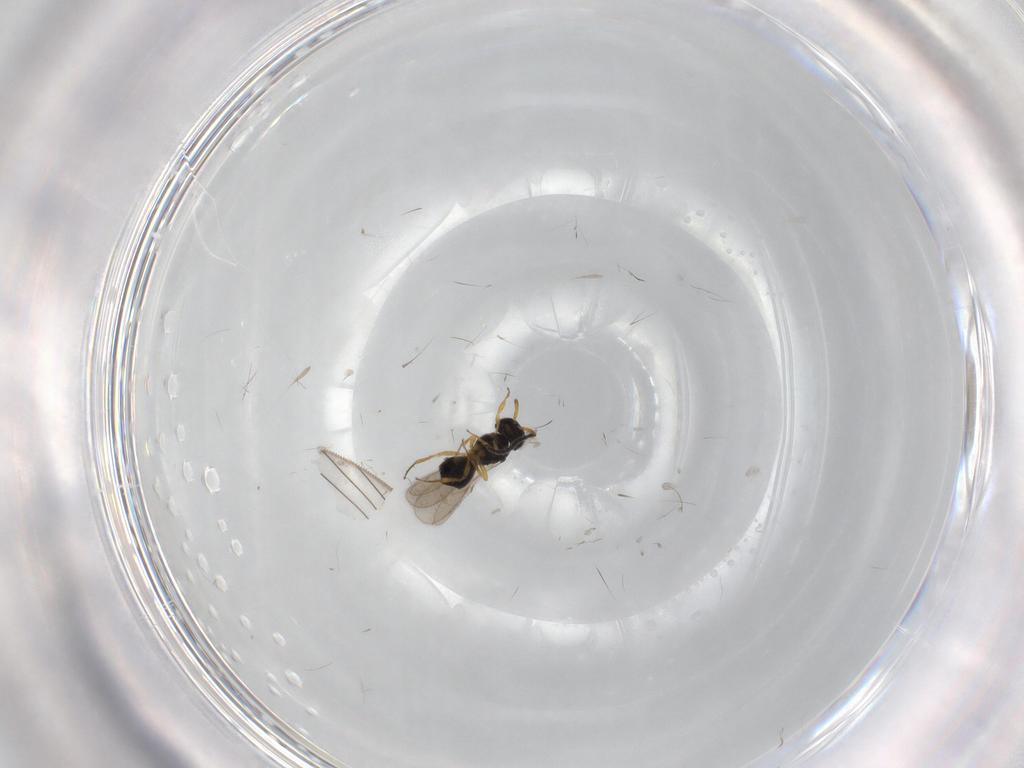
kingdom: Animalia
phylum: Arthropoda
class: Insecta
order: Hymenoptera
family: Scelionidae
